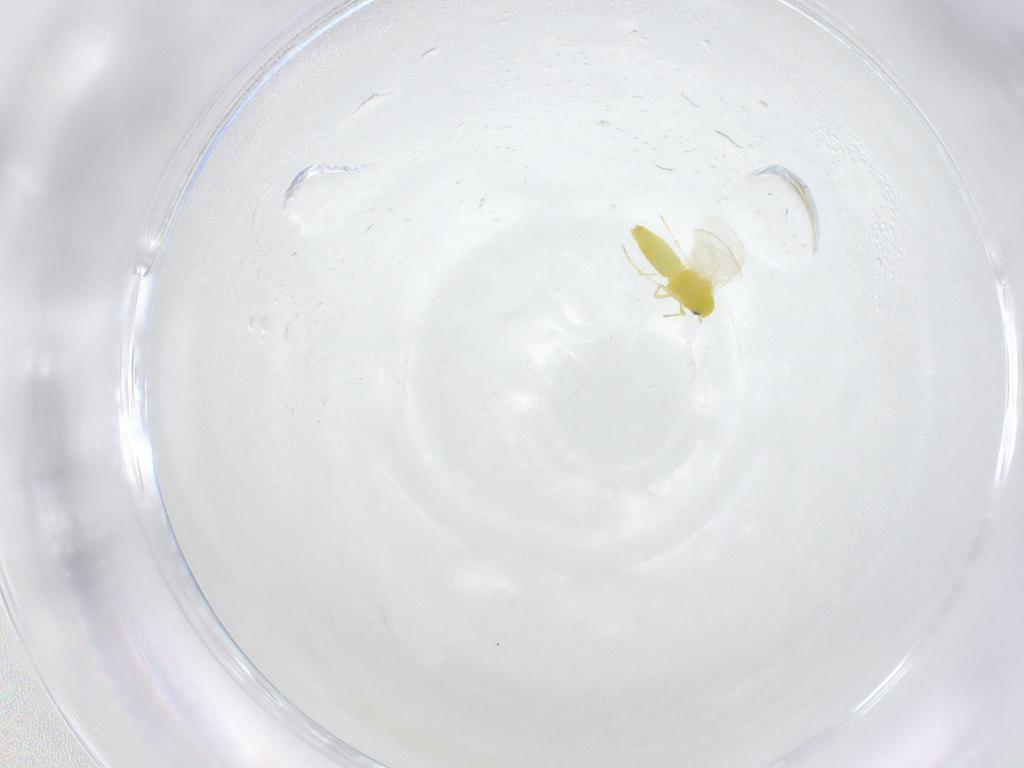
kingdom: Animalia
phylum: Arthropoda
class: Insecta
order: Hemiptera
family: Aleyrodidae
